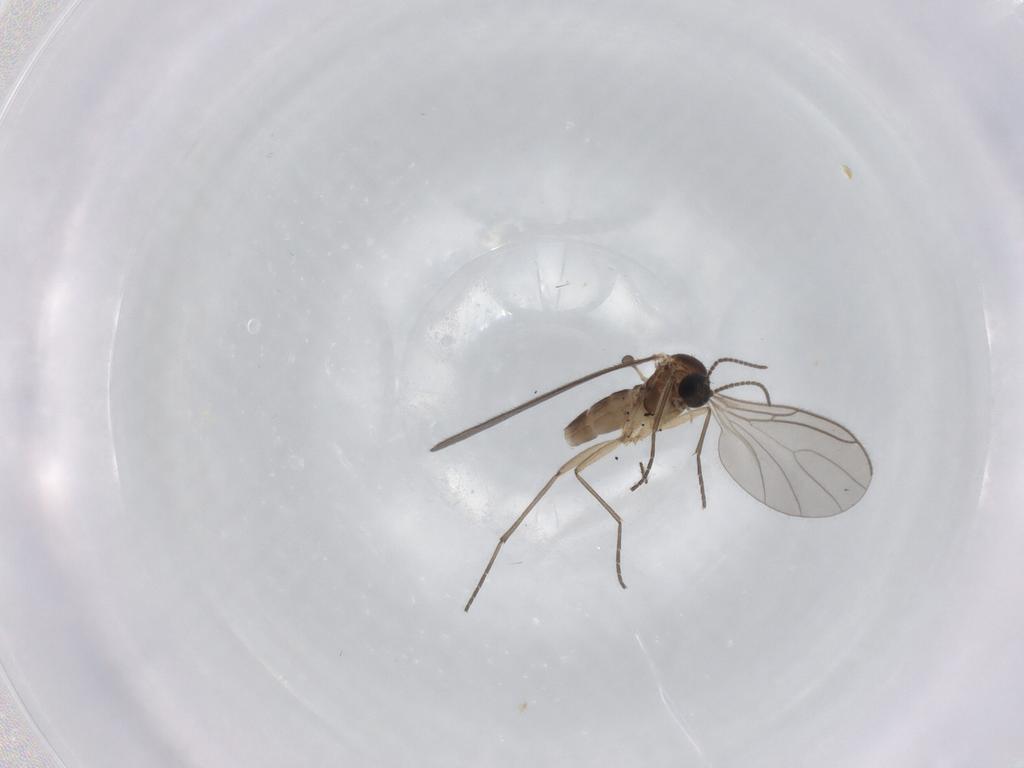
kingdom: Animalia
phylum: Arthropoda
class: Insecta
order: Diptera
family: Sciaridae
